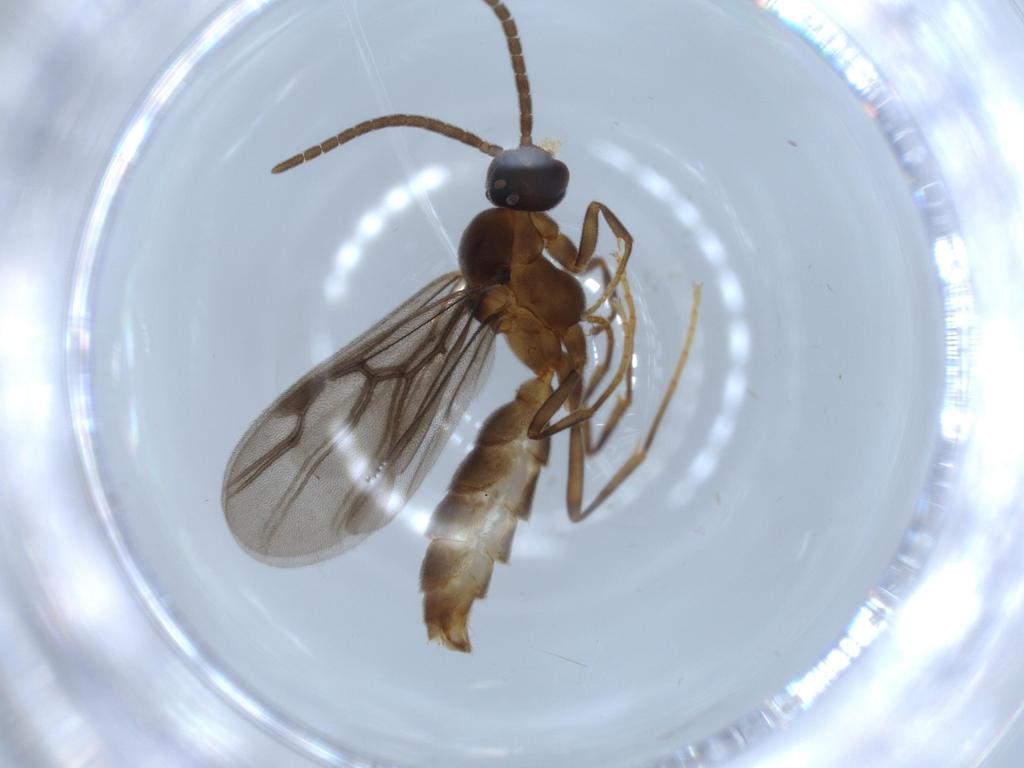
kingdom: Animalia
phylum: Arthropoda
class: Insecta
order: Hymenoptera
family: Formicidae
